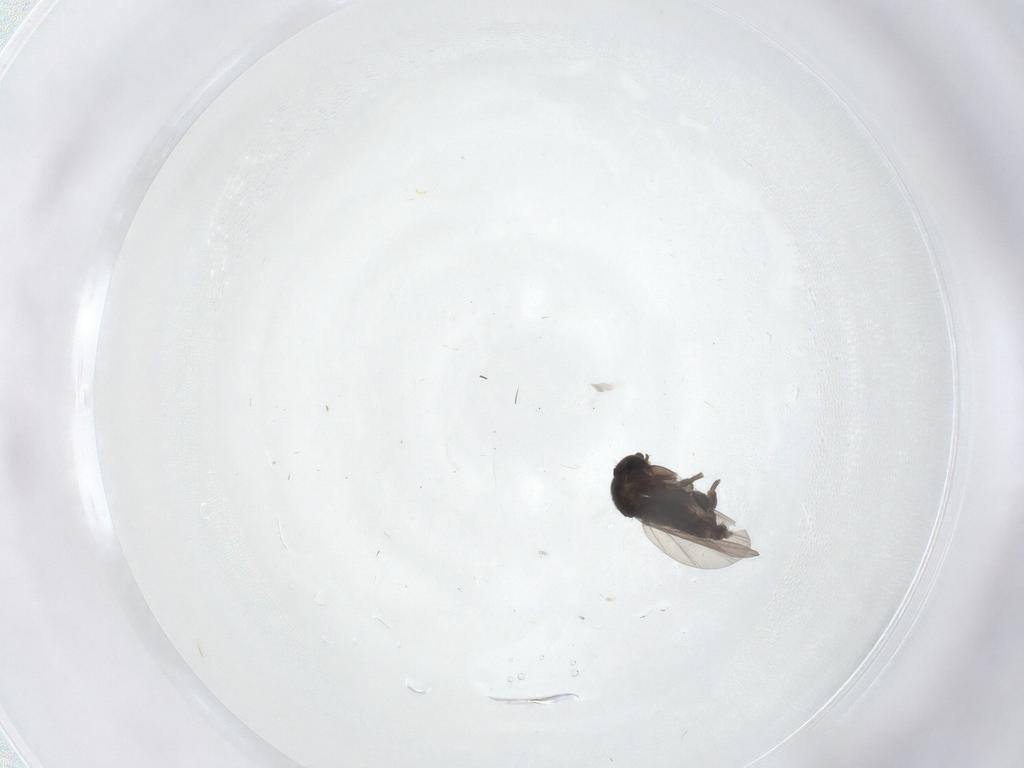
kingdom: Animalia
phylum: Arthropoda
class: Insecta
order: Diptera
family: Phoridae
